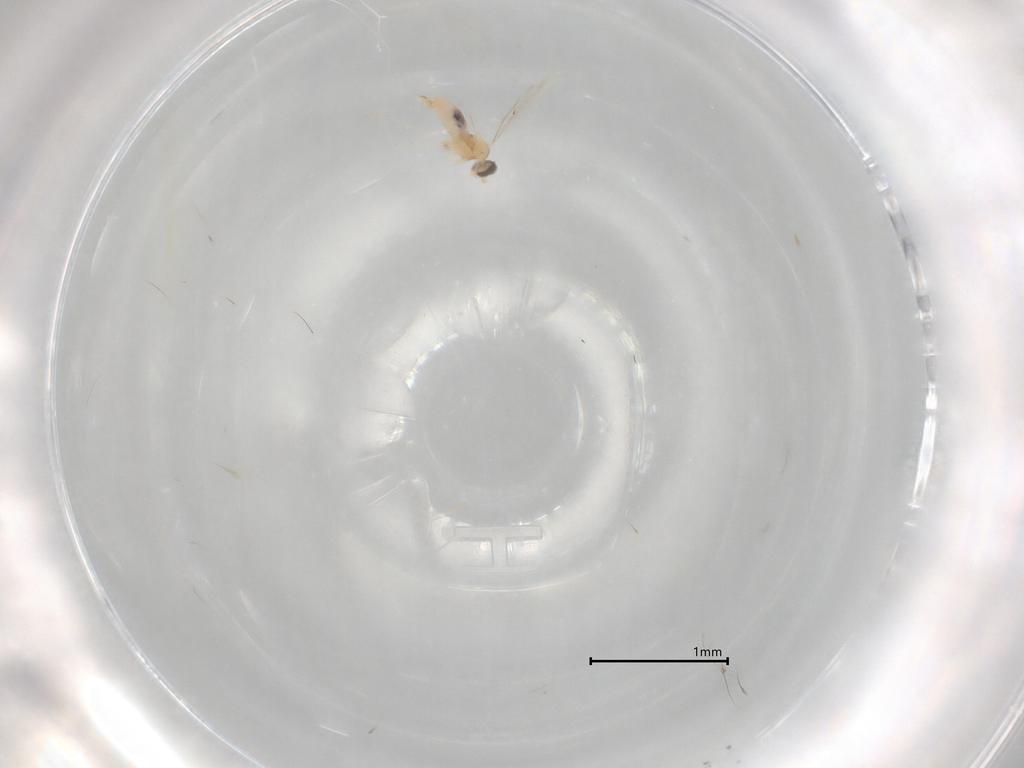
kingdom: Animalia
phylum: Arthropoda
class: Insecta
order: Diptera
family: Cecidomyiidae
